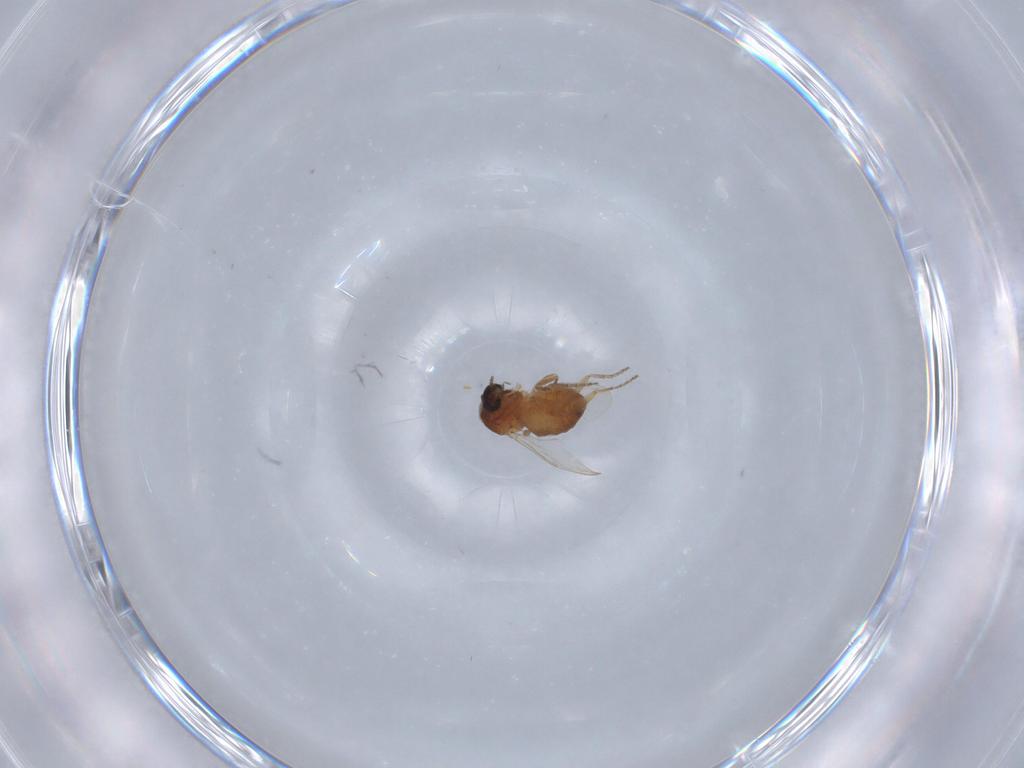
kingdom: Animalia
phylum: Arthropoda
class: Insecta
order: Diptera
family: Ceratopogonidae
